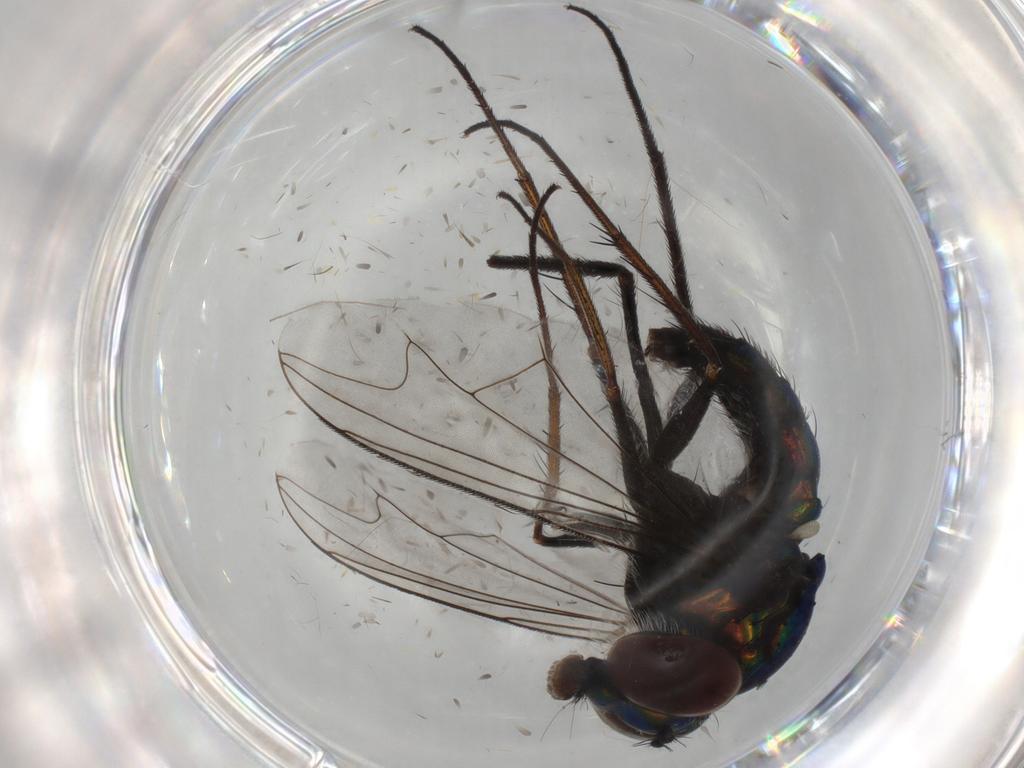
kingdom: Animalia
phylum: Arthropoda
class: Insecta
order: Diptera
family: Dolichopodidae
